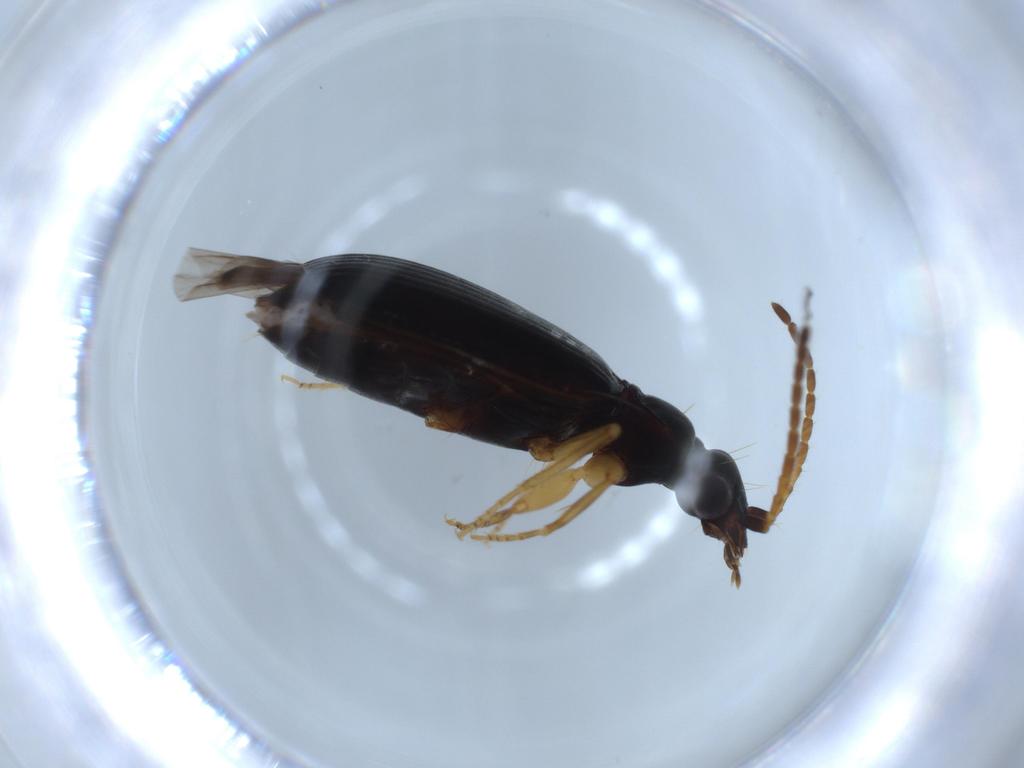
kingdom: Animalia
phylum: Arthropoda
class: Insecta
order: Coleoptera
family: Carabidae
